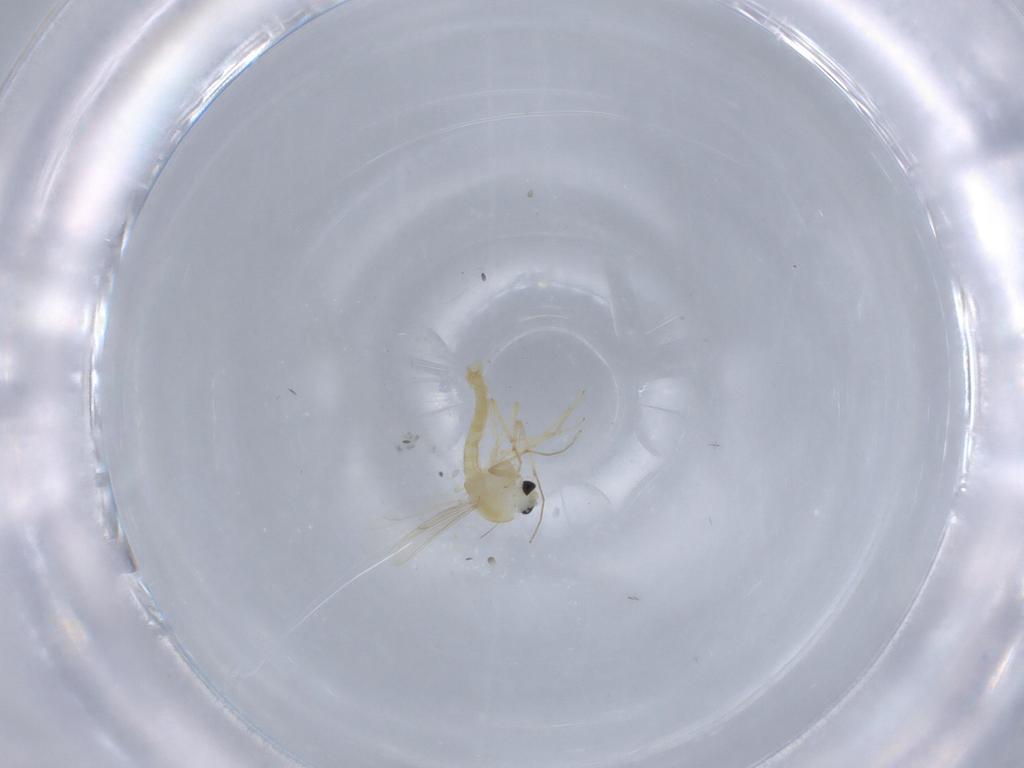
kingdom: Animalia
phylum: Arthropoda
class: Insecta
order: Diptera
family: Chironomidae
